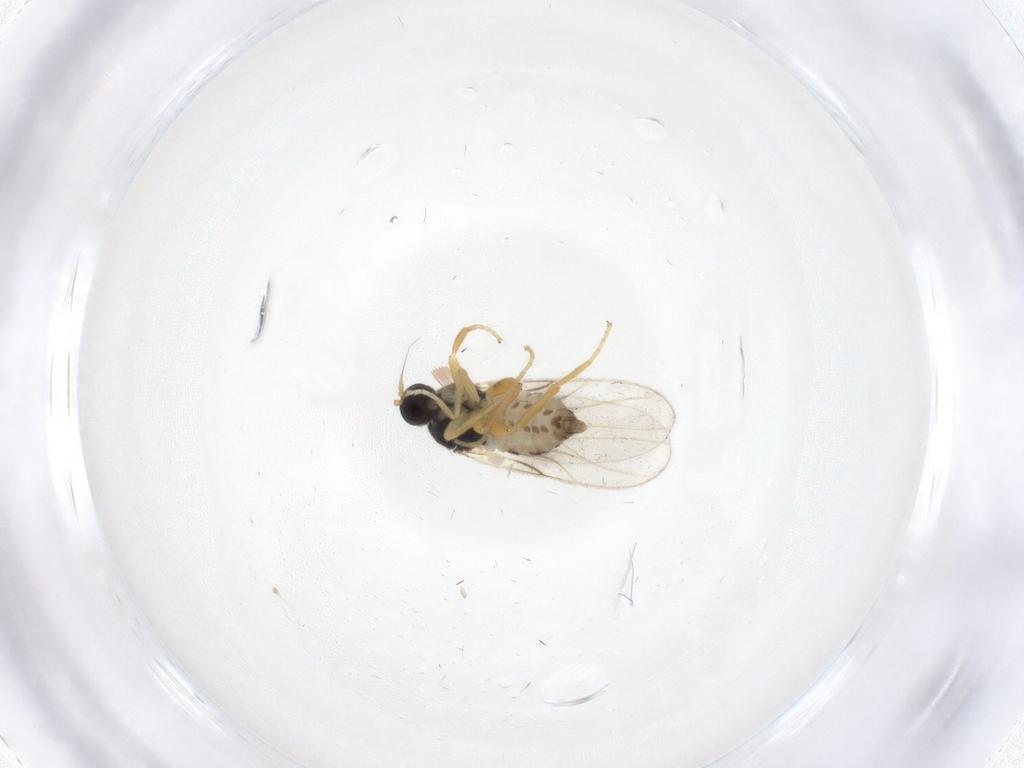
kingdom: Animalia
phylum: Arthropoda
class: Insecta
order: Diptera
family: Hybotidae
